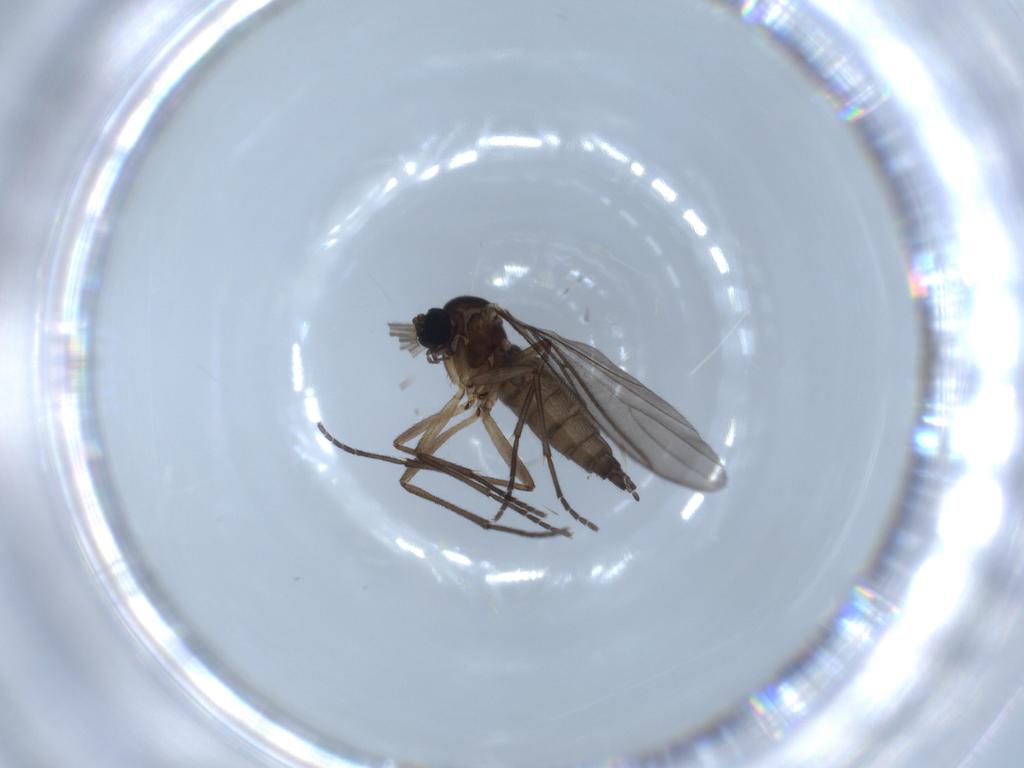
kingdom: Animalia
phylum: Arthropoda
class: Insecta
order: Diptera
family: Sciaridae
